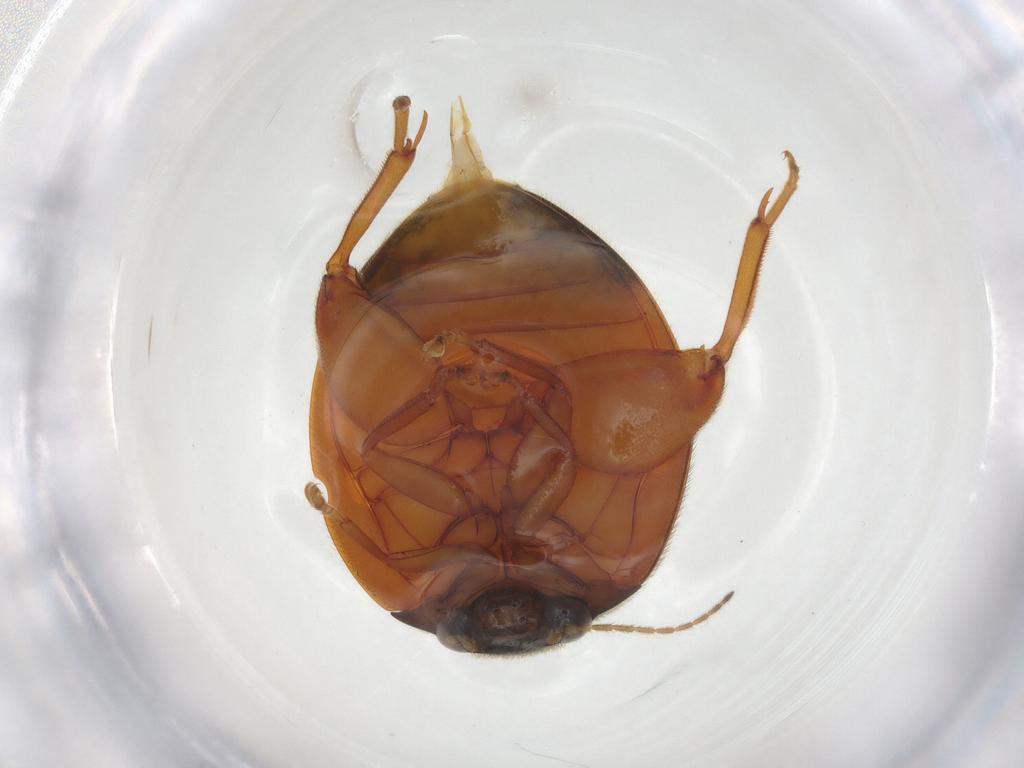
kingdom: Animalia
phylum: Arthropoda
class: Insecta
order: Coleoptera
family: Scirtidae
